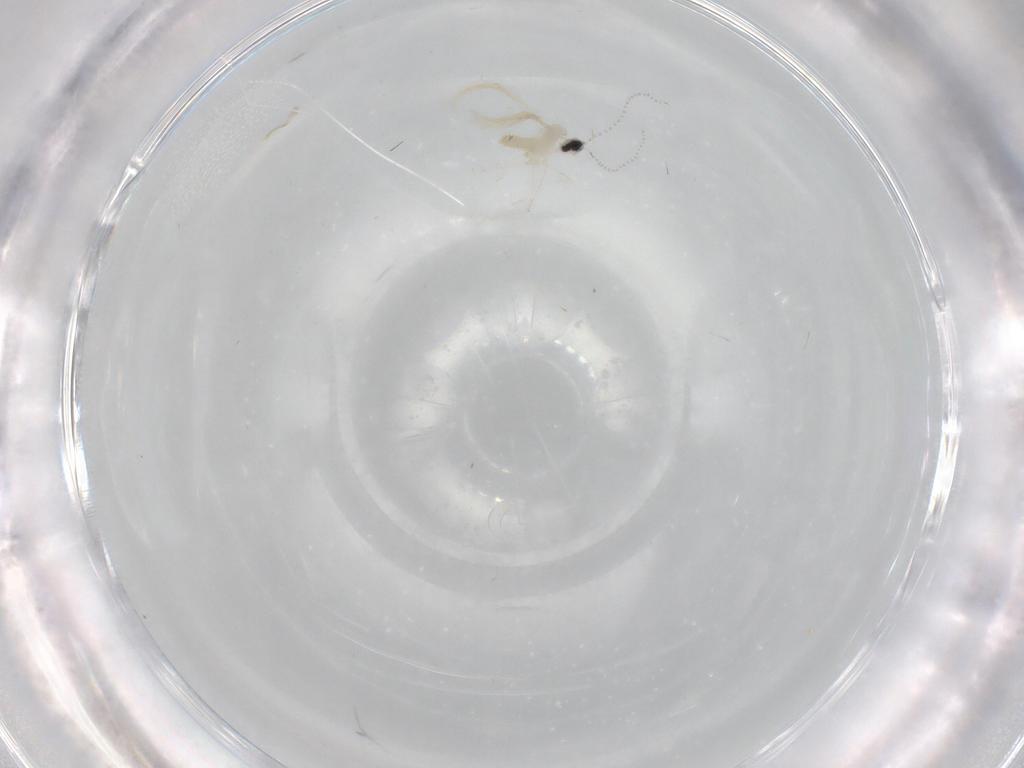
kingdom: Animalia
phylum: Arthropoda
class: Insecta
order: Diptera
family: Cecidomyiidae
